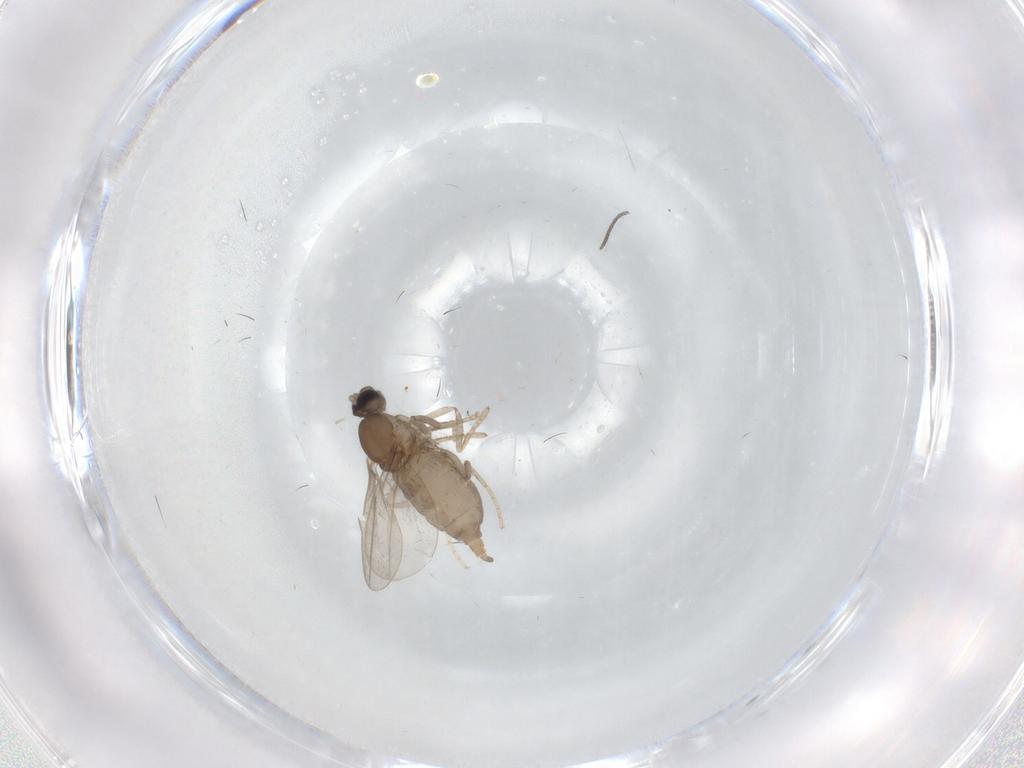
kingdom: Animalia
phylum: Arthropoda
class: Insecta
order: Diptera
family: Cecidomyiidae
